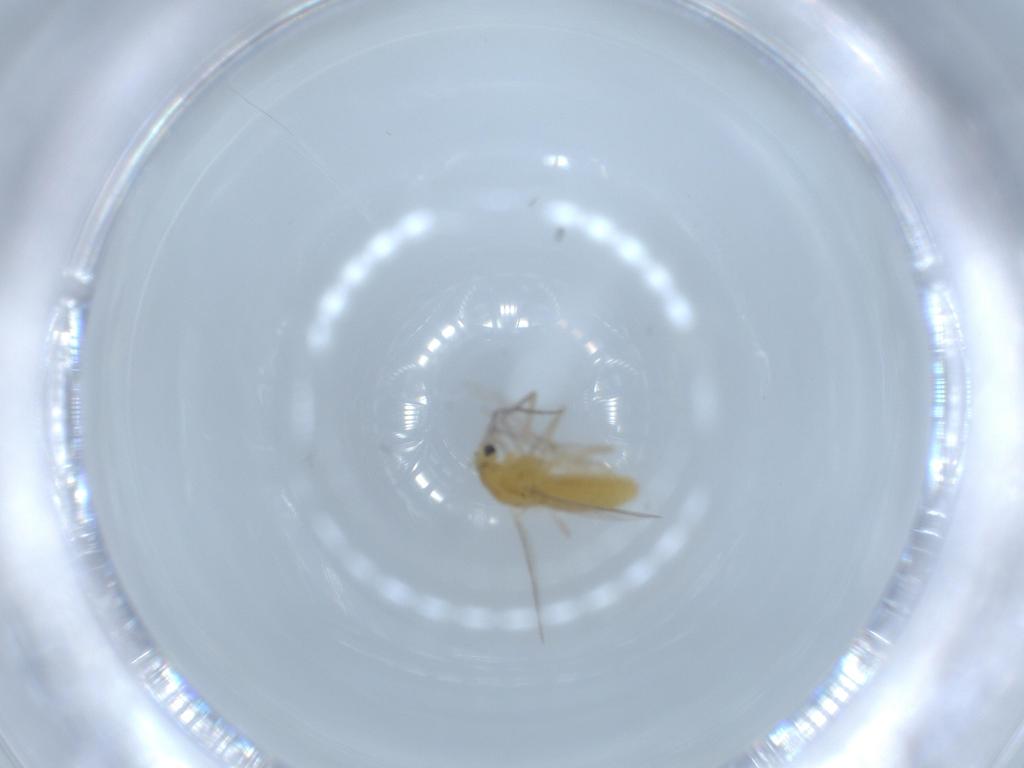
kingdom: Animalia
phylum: Arthropoda
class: Insecta
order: Diptera
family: Chironomidae
